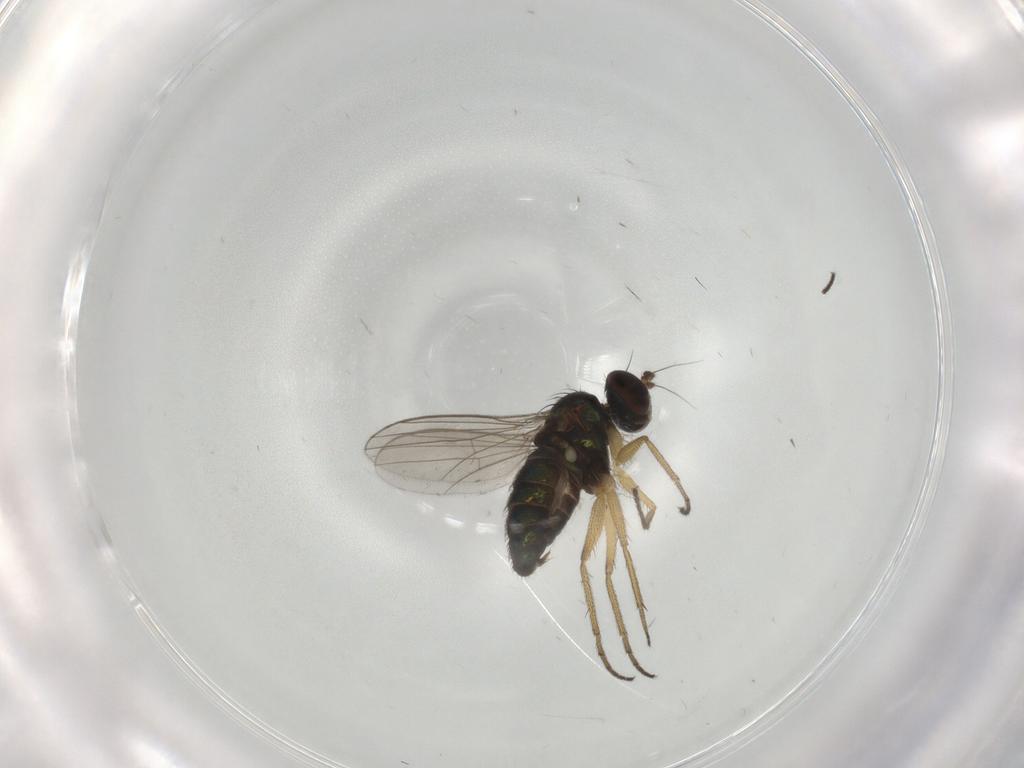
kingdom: Animalia
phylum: Arthropoda
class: Insecta
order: Diptera
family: Dolichopodidae
